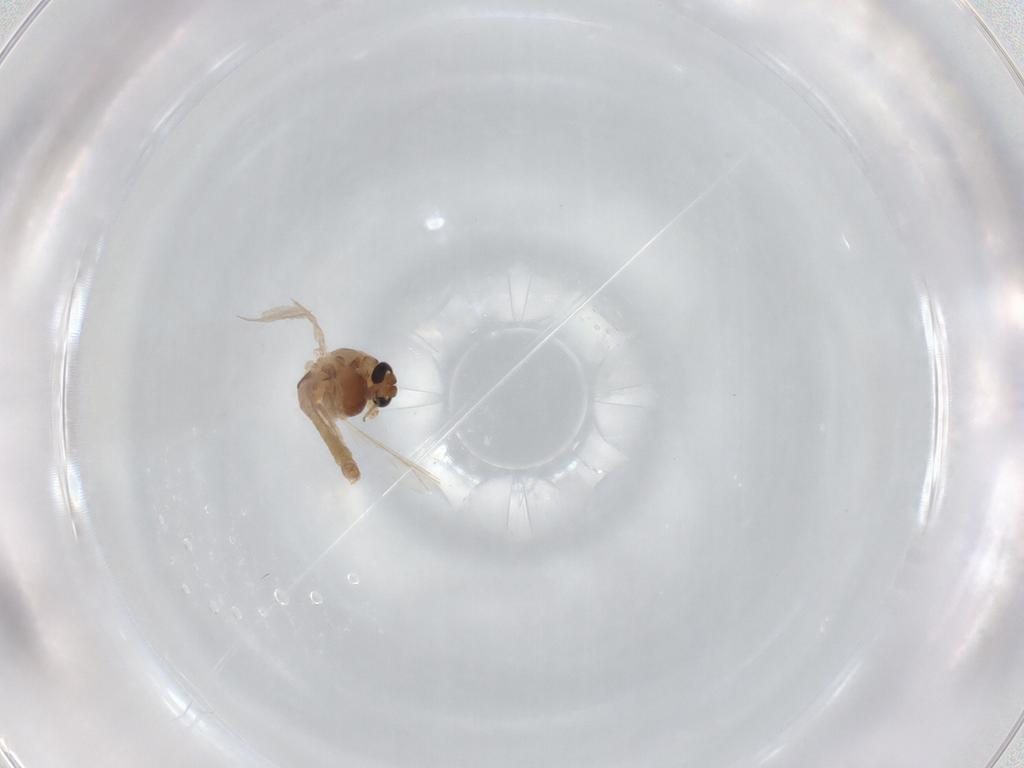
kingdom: Animalia
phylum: Arthropoda
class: Insecta
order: Diptera
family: Chironomidae
